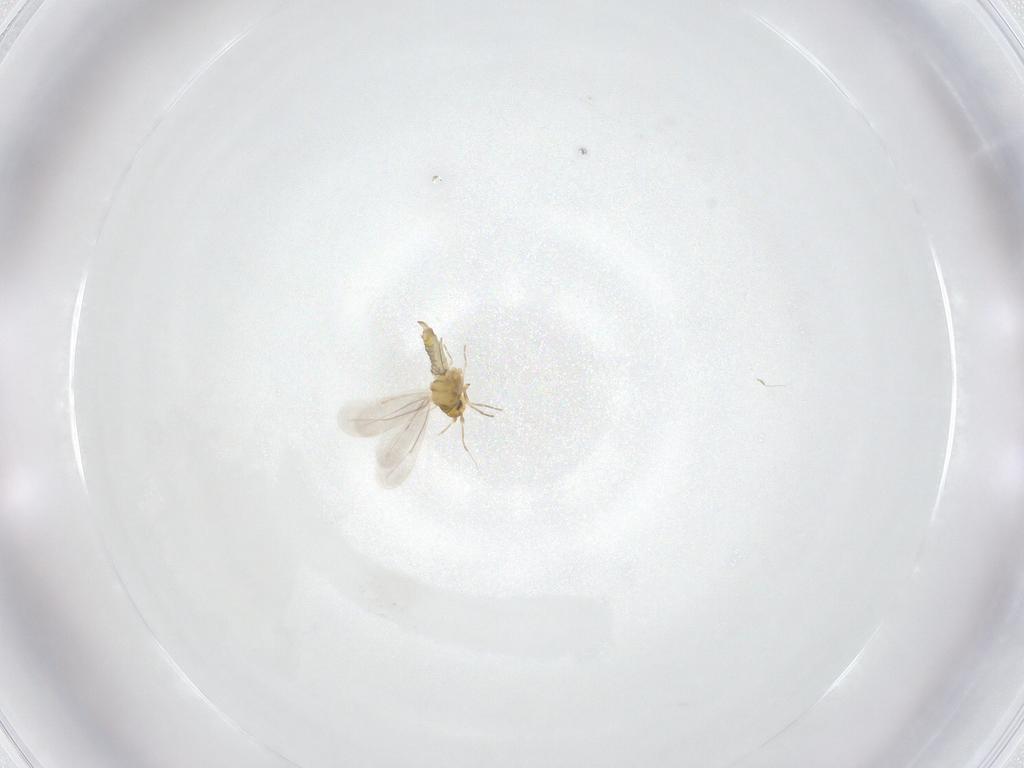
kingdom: Animalia
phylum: Arthropoda
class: Insecta
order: Hemiptera
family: Aleyrodidae
